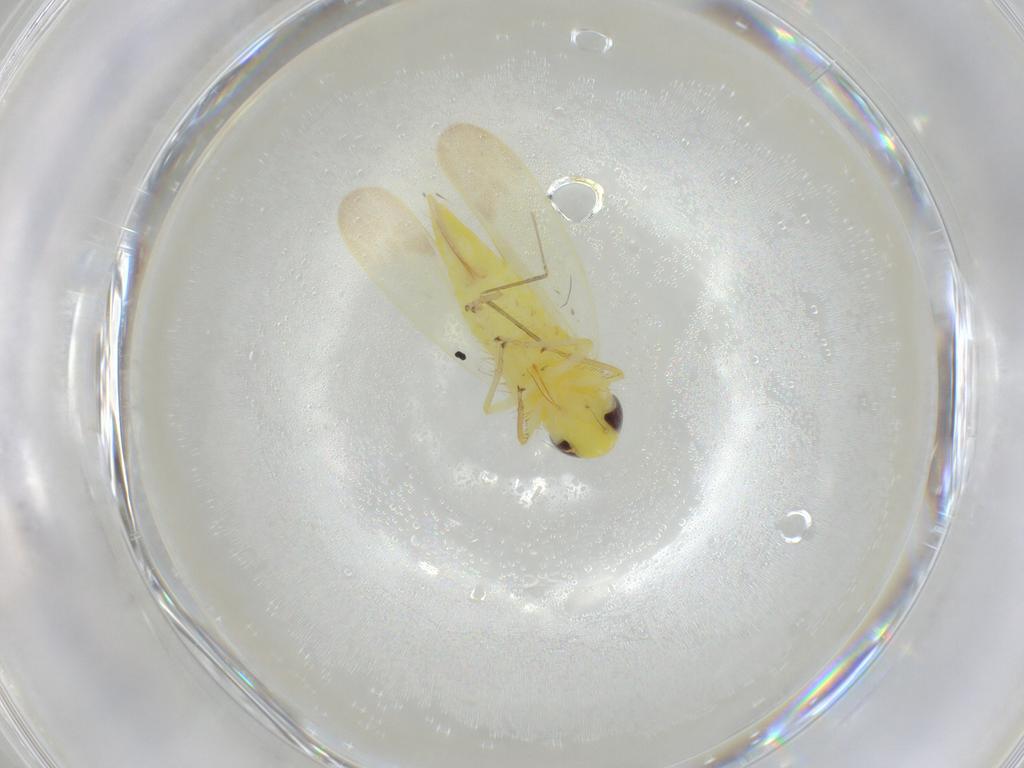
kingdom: Animalia
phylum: Arthropoda
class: Insecta
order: Hemiptera
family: Cicadellidae
